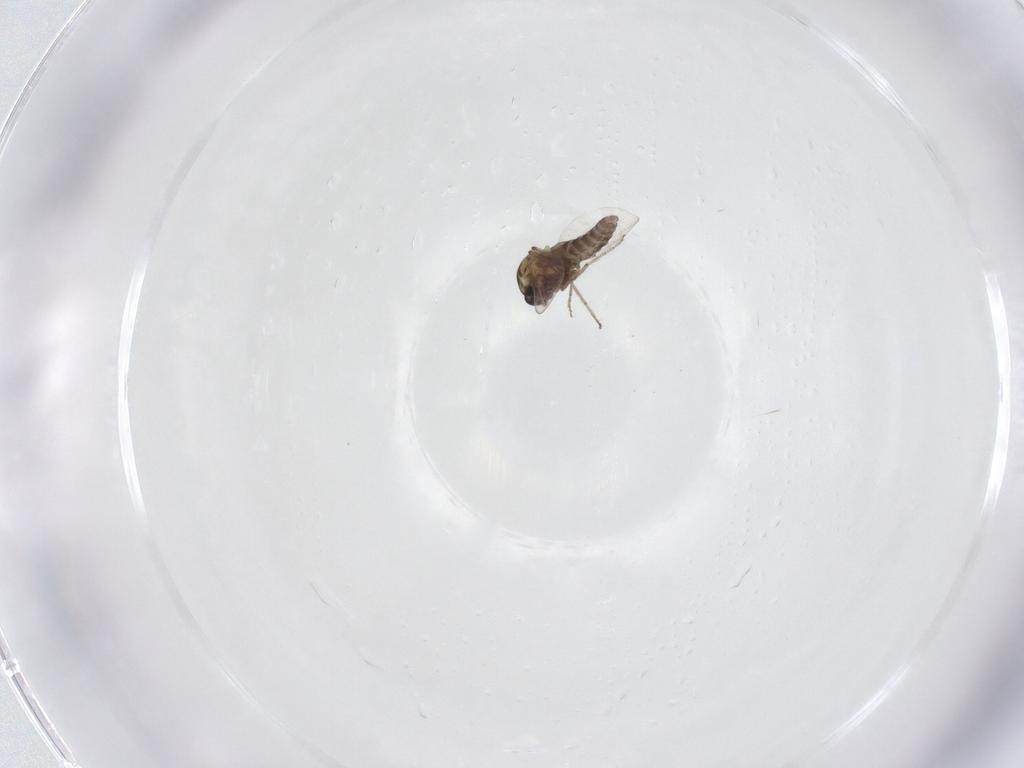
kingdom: Animalia
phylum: Arthropoda
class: Insecta
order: Diptera
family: Ceratopogonidae
